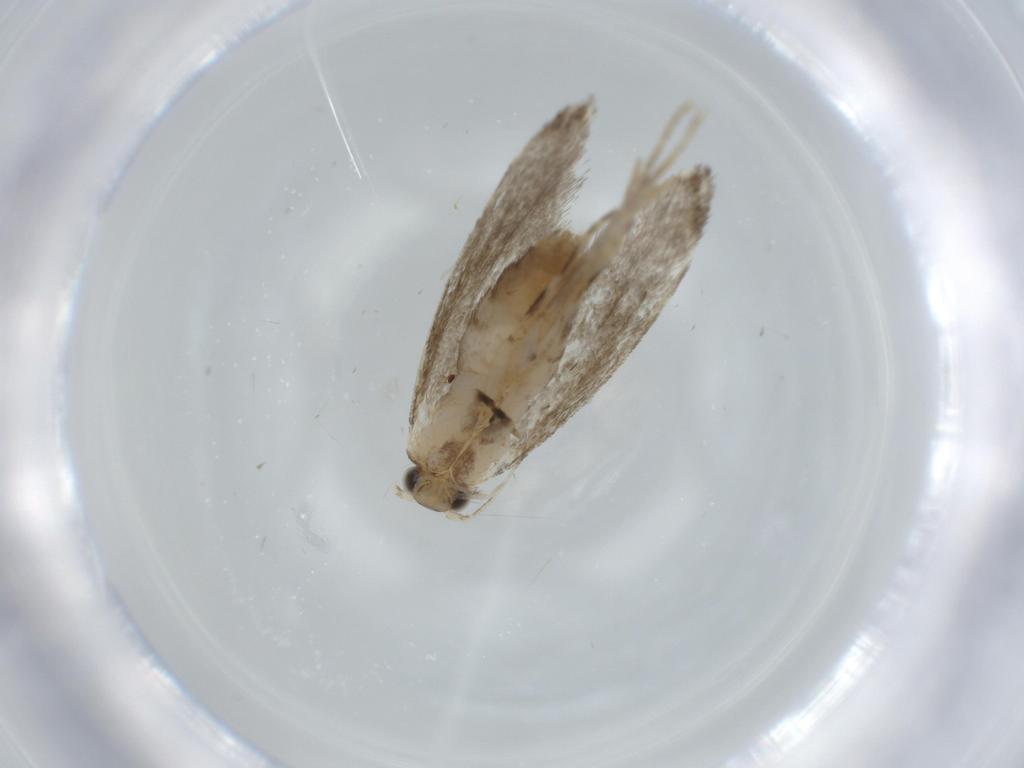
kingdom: Animalia
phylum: Arthropoda
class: Insecta
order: Lepidoptera
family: Tineidae
